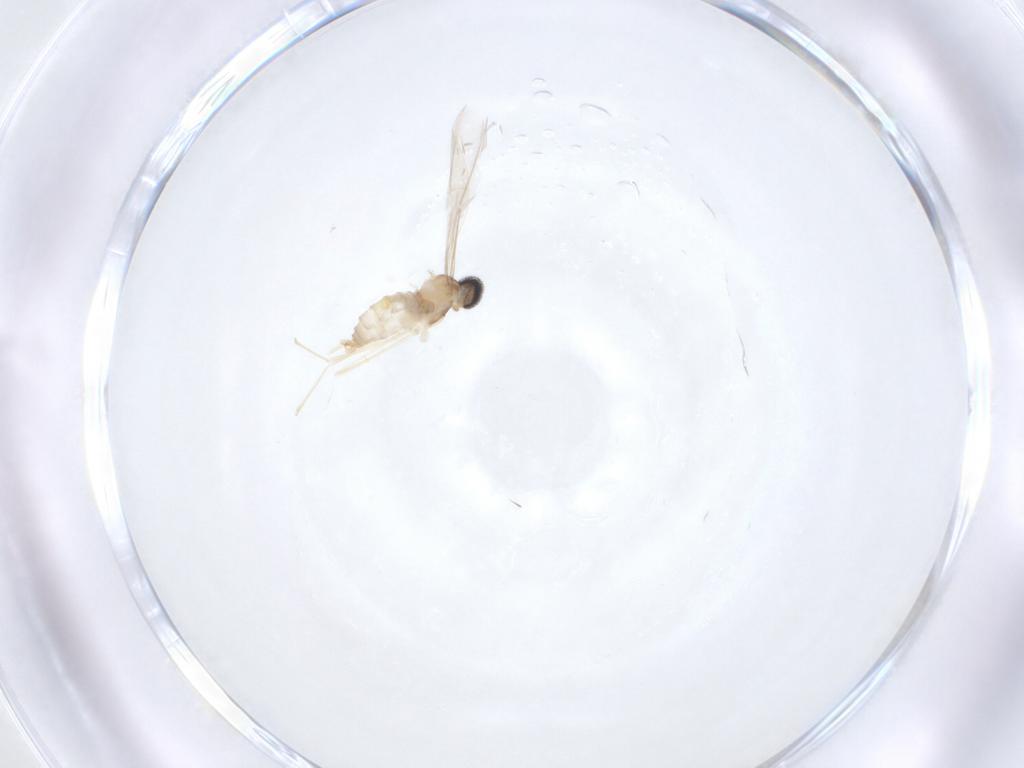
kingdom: Animalia
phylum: Arthropoda
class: Insecta
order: Diptera
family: Cecidomyiidae
